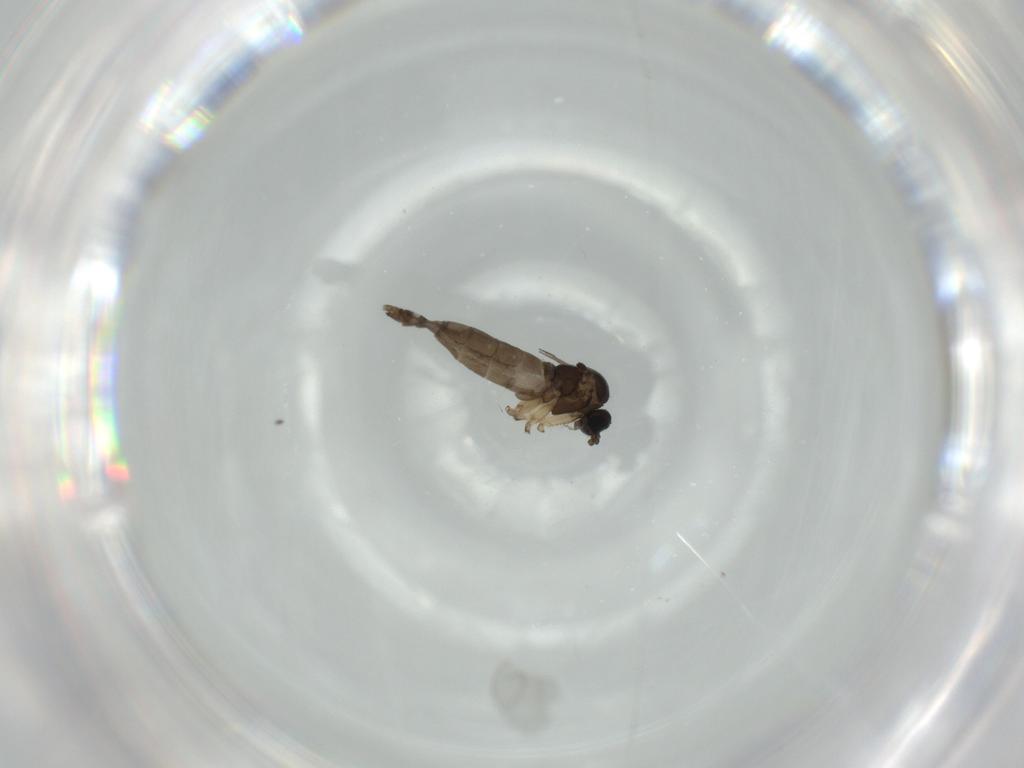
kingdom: Animalia
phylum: Arthropoda
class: Insecta
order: Diptera
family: Sciaridae
